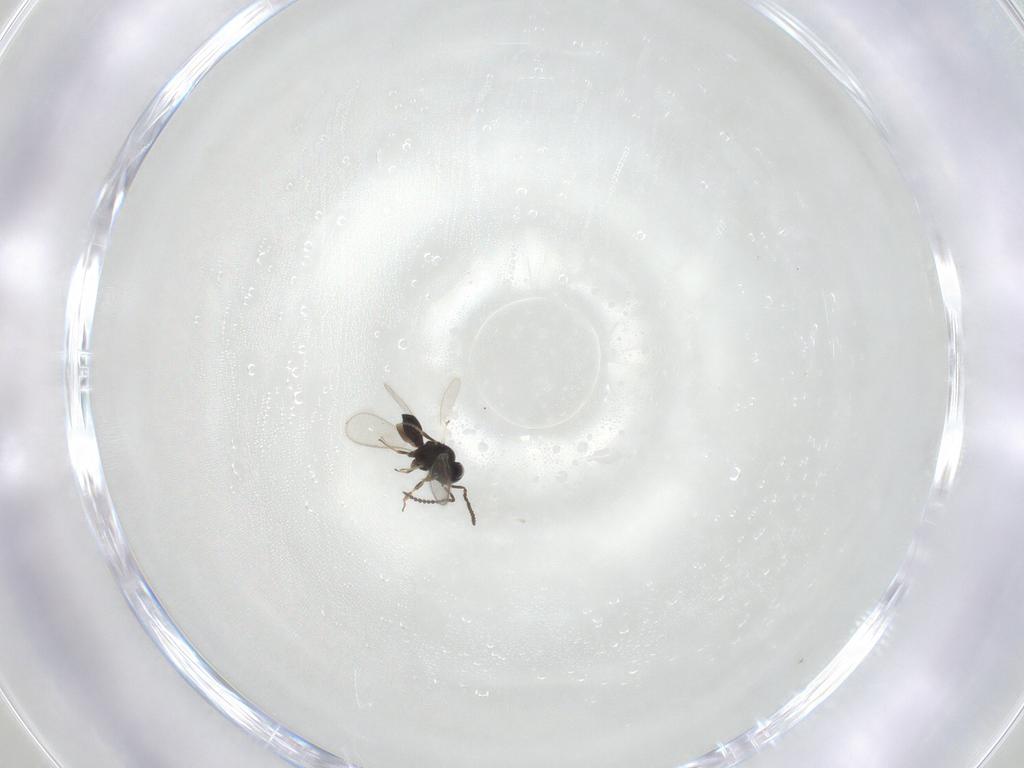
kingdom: Animalia
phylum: Arthropoda
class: Insecta
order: Hymenoptera
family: Scelionidae
